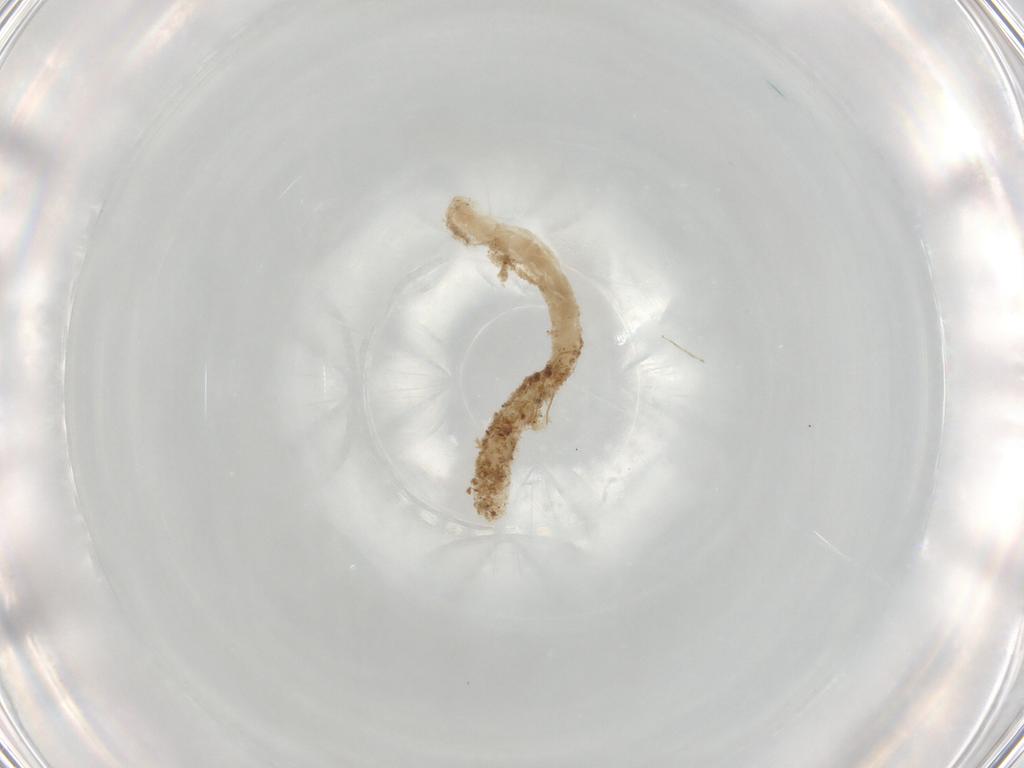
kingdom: Animalia
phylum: Arthropoda
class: Insecta
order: Diptera
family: Chironomidae
